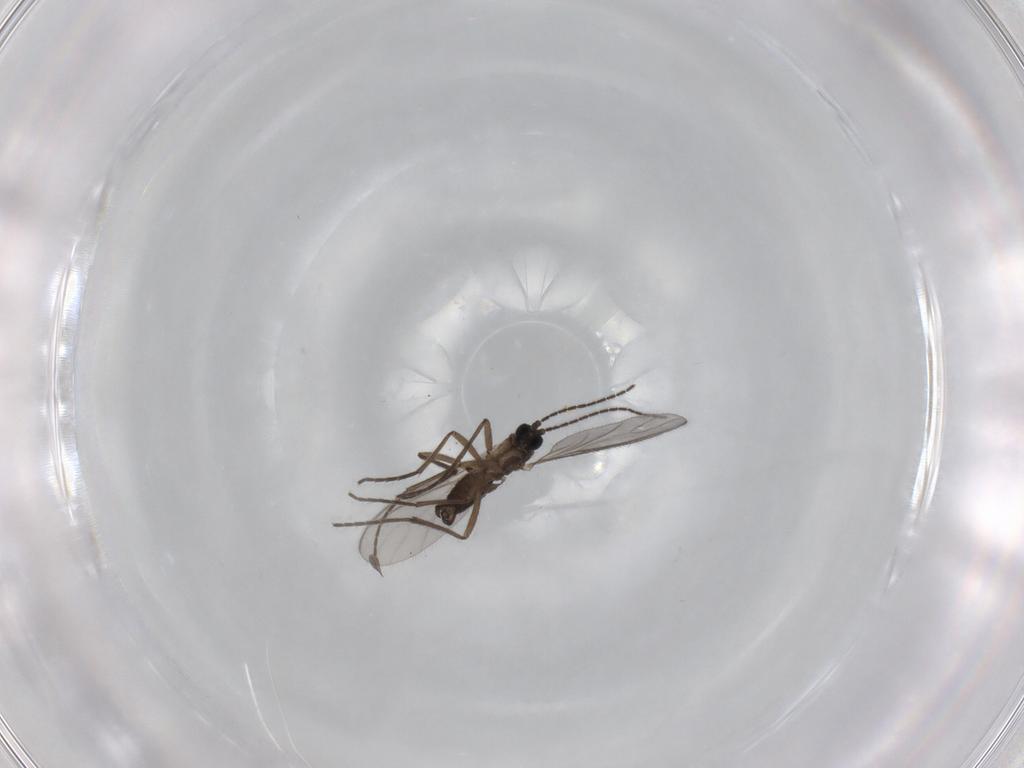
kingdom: Animalia
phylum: Arthropoda
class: Insecta
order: Diptera
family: Sciaridae
